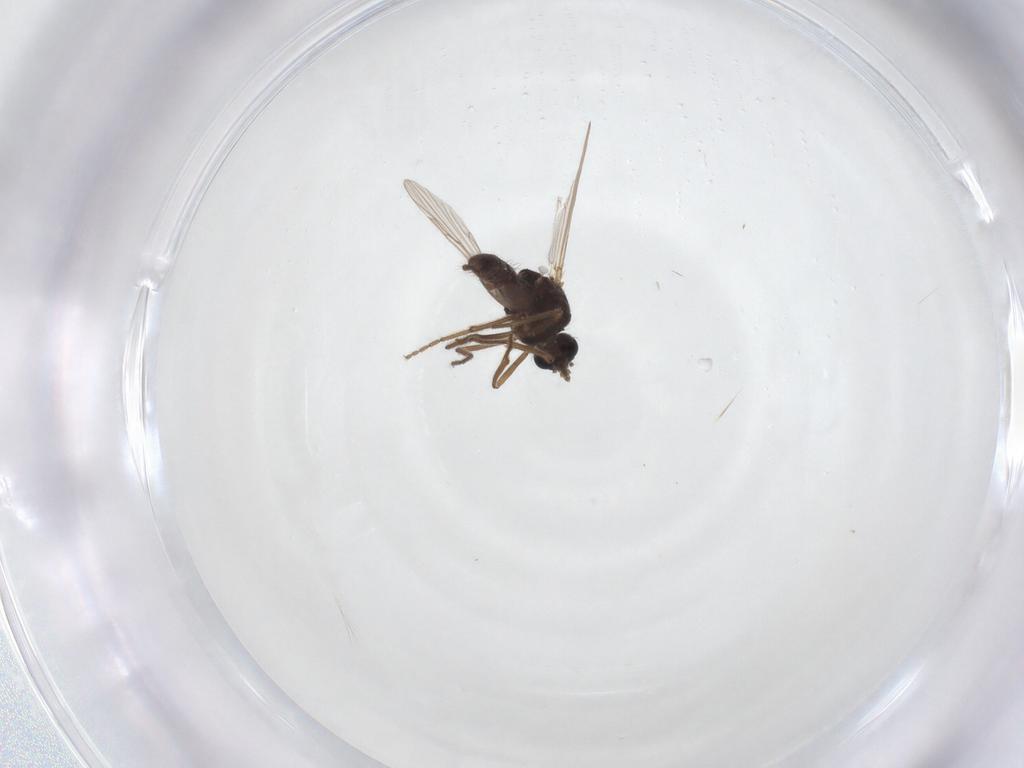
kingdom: Animalia
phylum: Arthropoda
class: Insecta
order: Diptera
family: Ceratopogonidae
